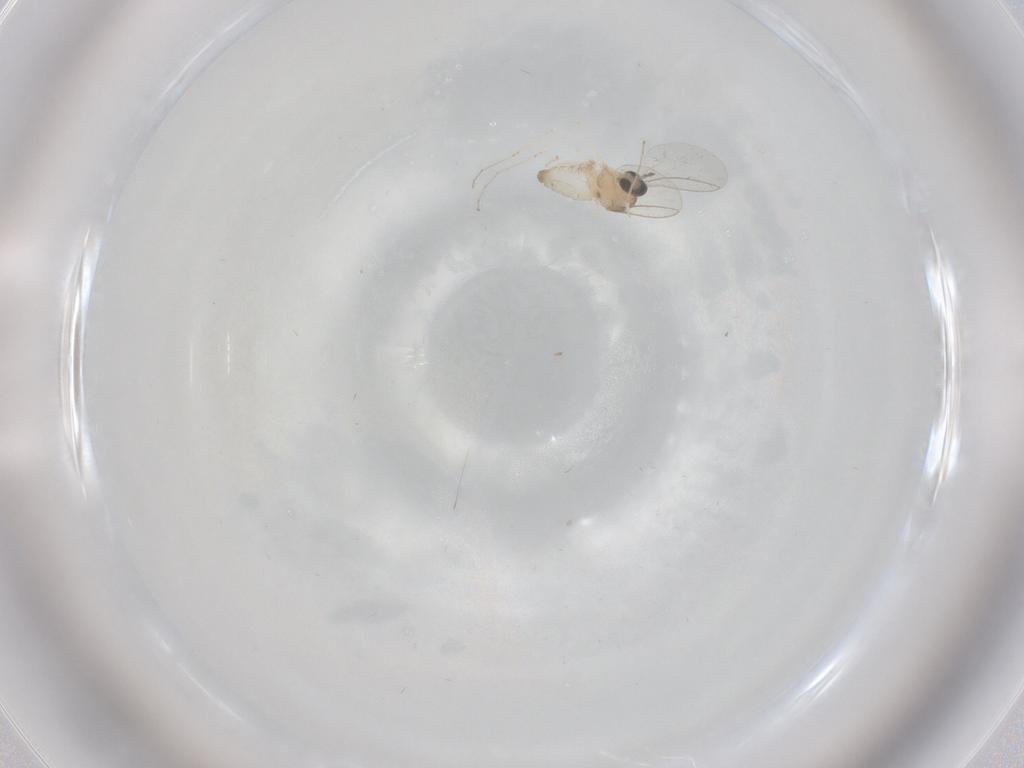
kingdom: Animalia
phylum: Arthropoda
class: Insecta
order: Diptera
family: Cecidomyiidae
